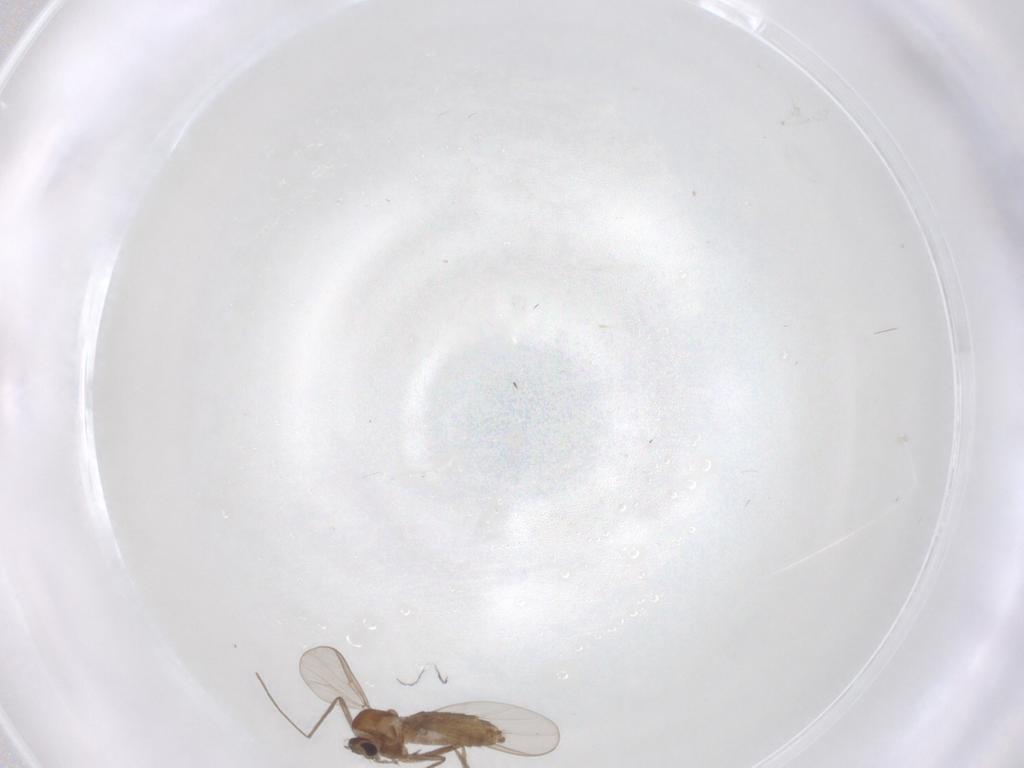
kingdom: Animalia
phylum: Arthropoda
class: Insecta
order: Diptera
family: Chironomidae
